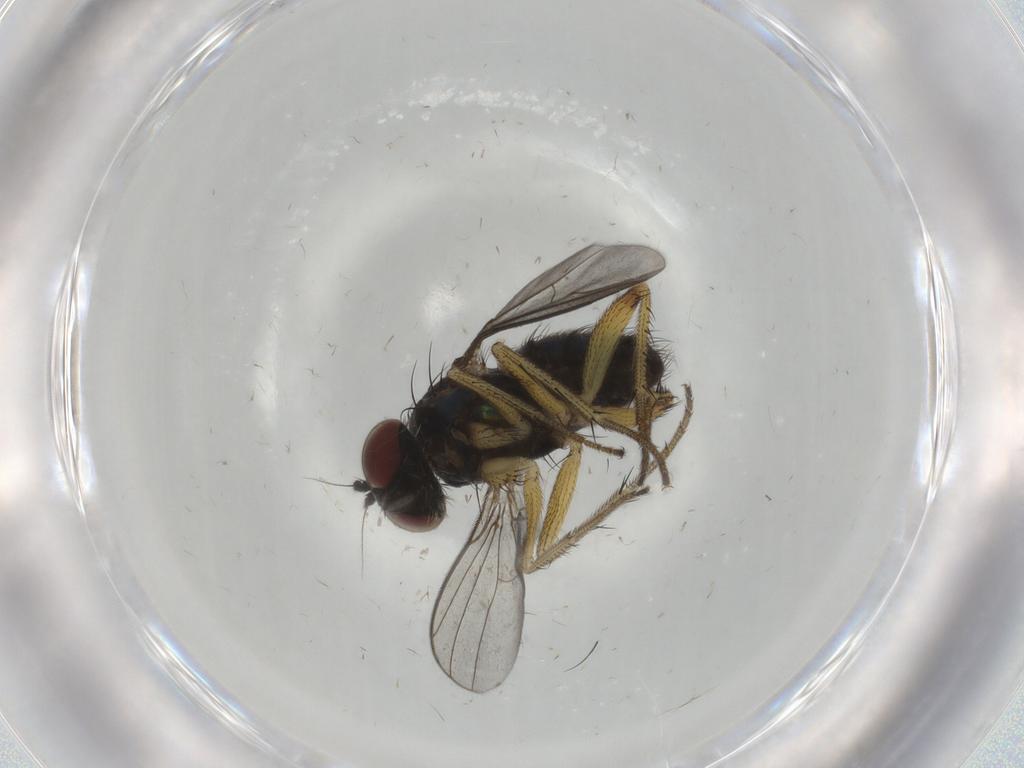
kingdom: Animalia
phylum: Arthropoda
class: Insecta
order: Diptera
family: Dolichopodidae
